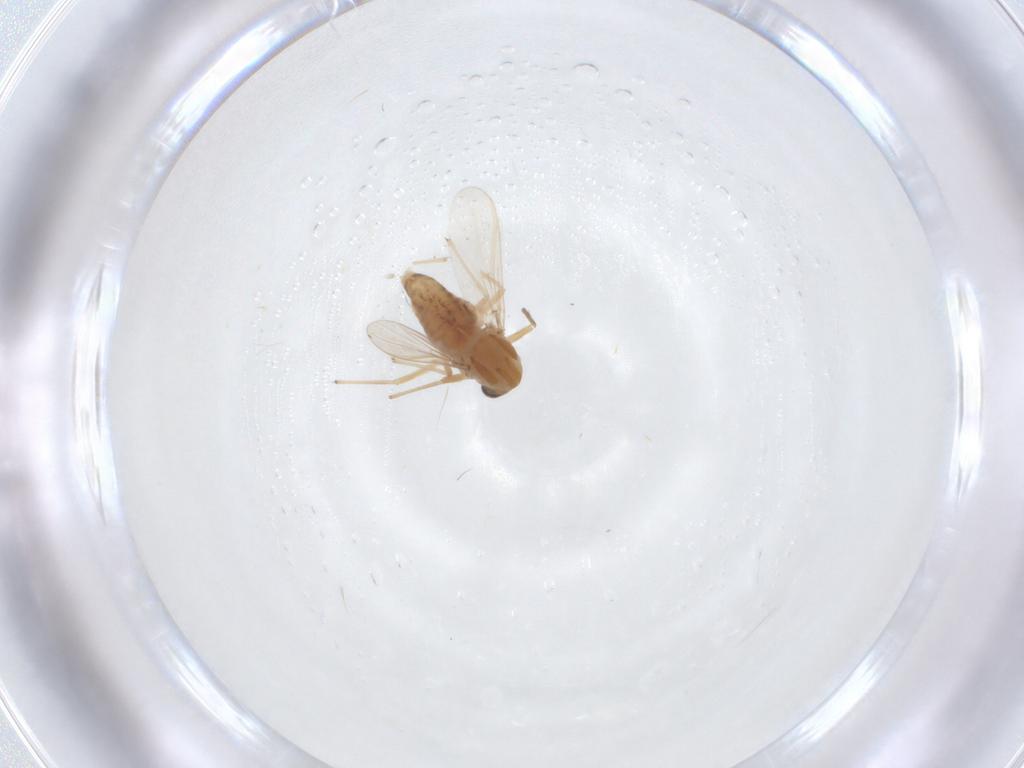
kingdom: Animalia
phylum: Arthropoda
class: Insecta
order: Diptera
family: Chironomidae
